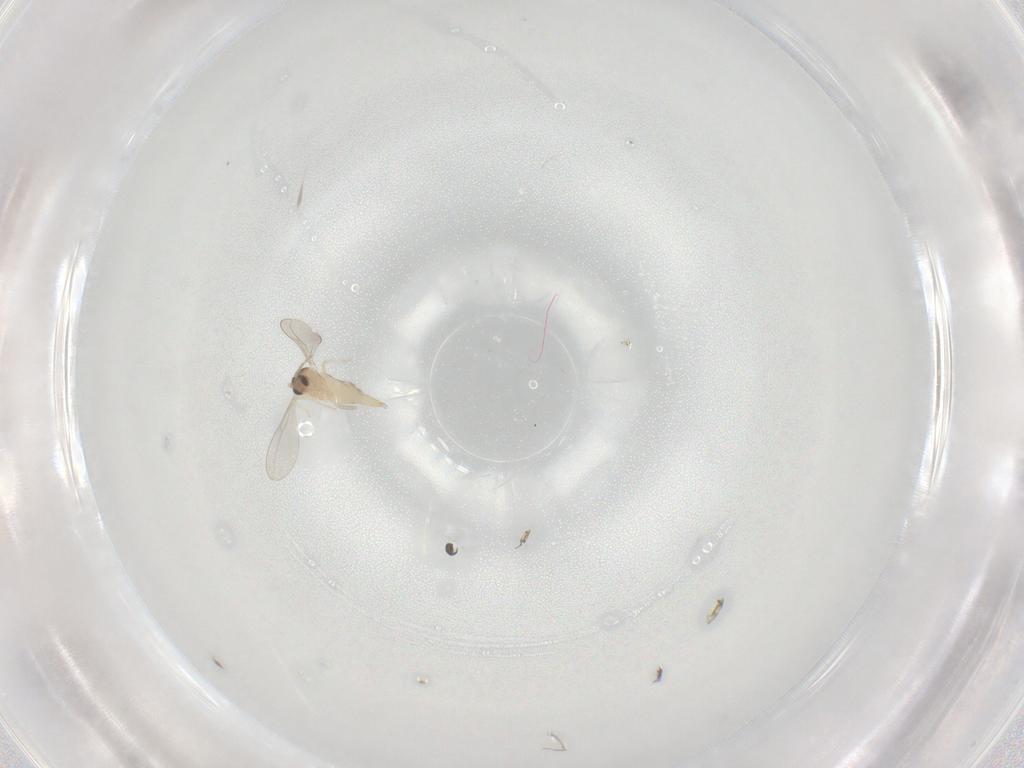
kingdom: Animalia
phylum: Arthropoda
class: Insecta
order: Diptera
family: Cecidomyiidae
